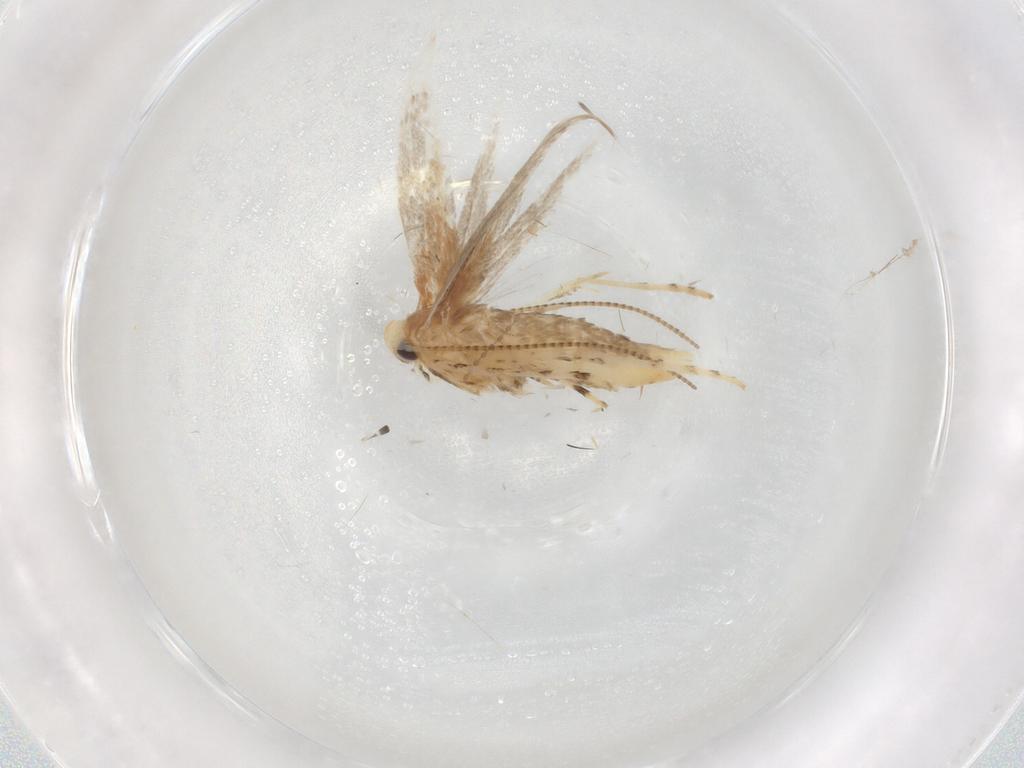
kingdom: Animalia
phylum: Arthropoda
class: Insecta
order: Lepidoptera
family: Gracillariidae
